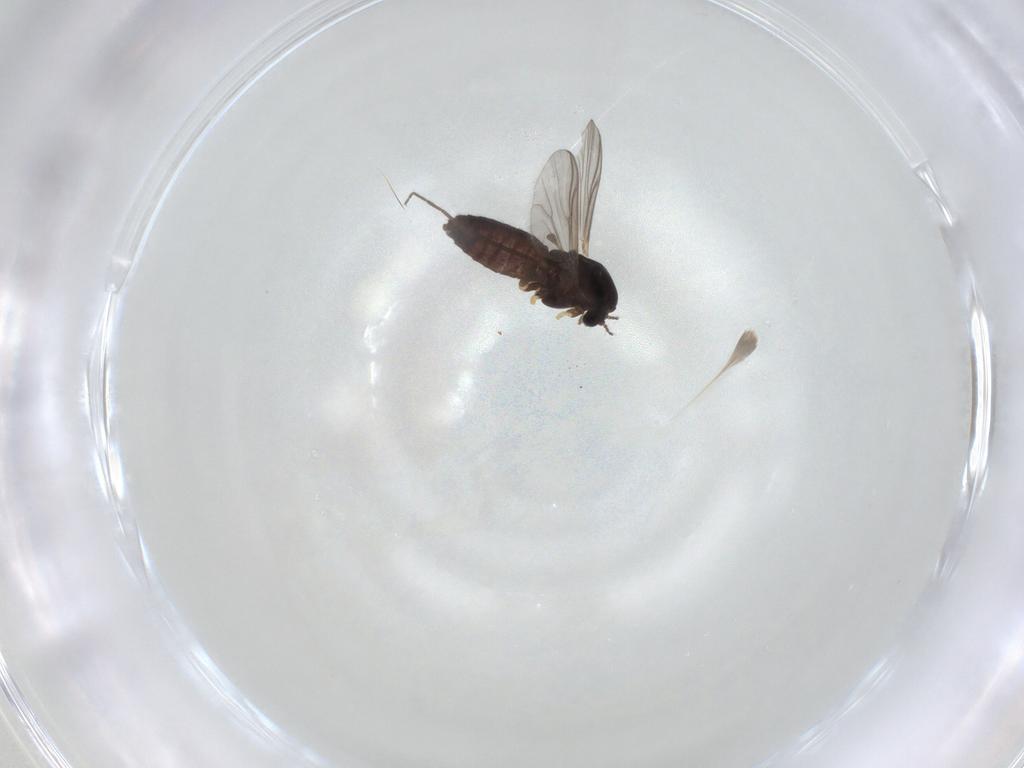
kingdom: Animalia
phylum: Arthropoda
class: Insecta
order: Diptera
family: Chironomidae
